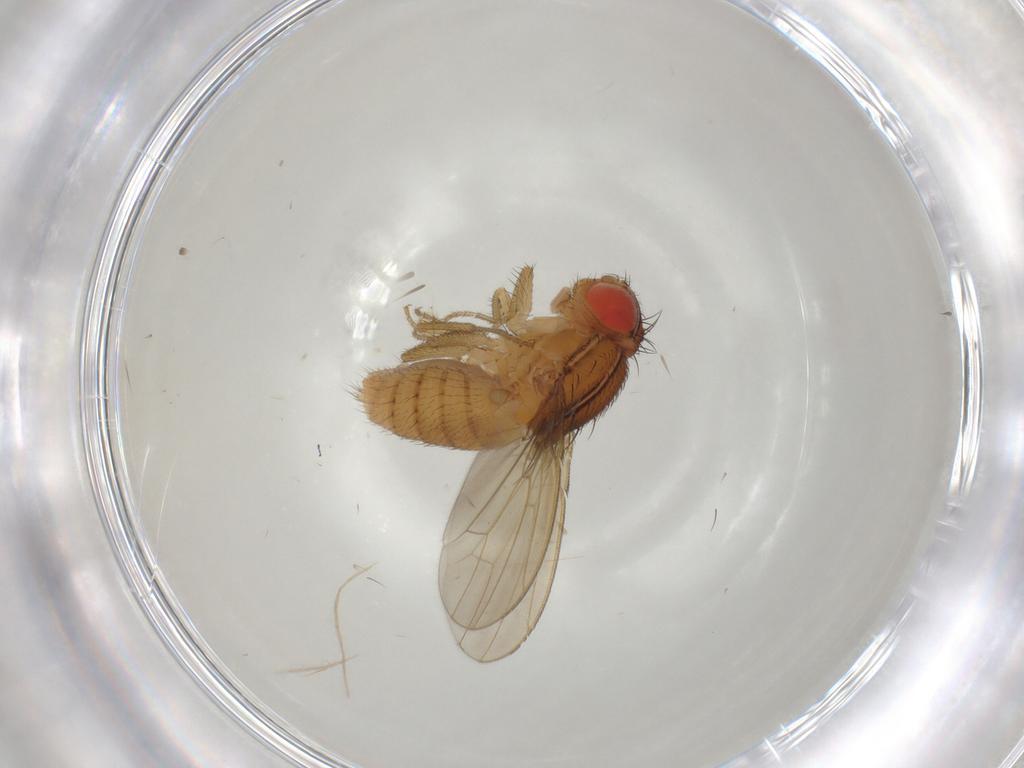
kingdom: Animalia
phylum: Arthropoda
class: Insecta
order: Diptera
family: Drosophilidae
